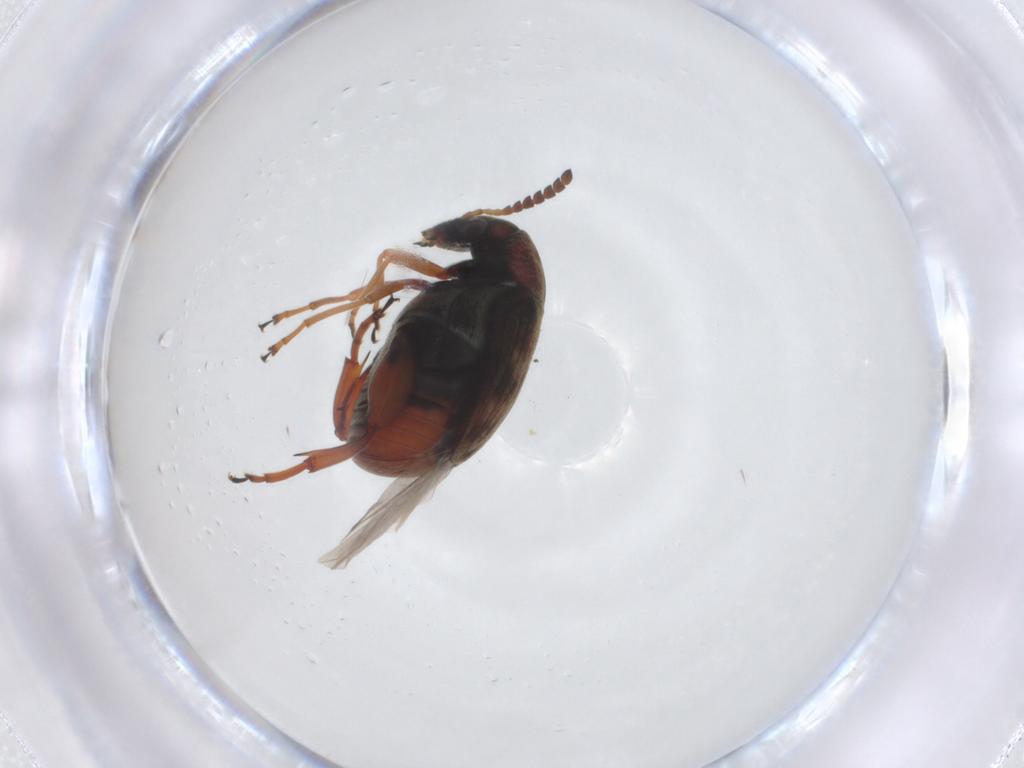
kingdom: Animalia
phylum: Arthropoda
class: Insecta
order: Coleoptera
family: Chrysomelidae
